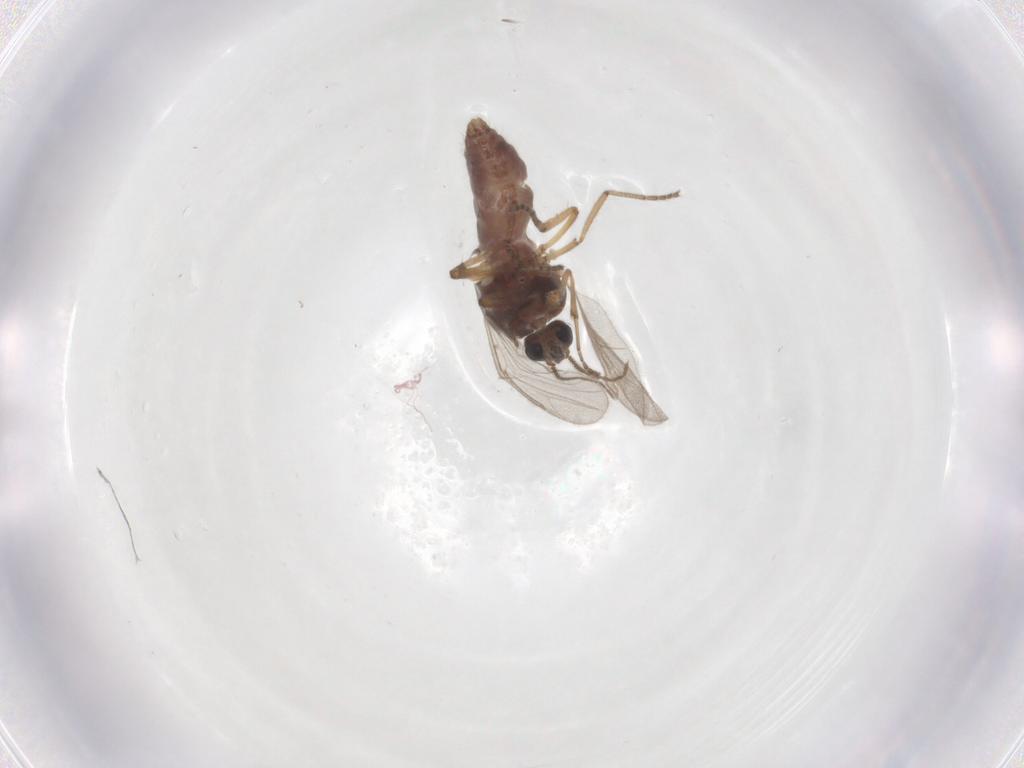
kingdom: Animalia
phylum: Arthropoda
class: Insecta
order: Diptera
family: Ceratopogonidae
